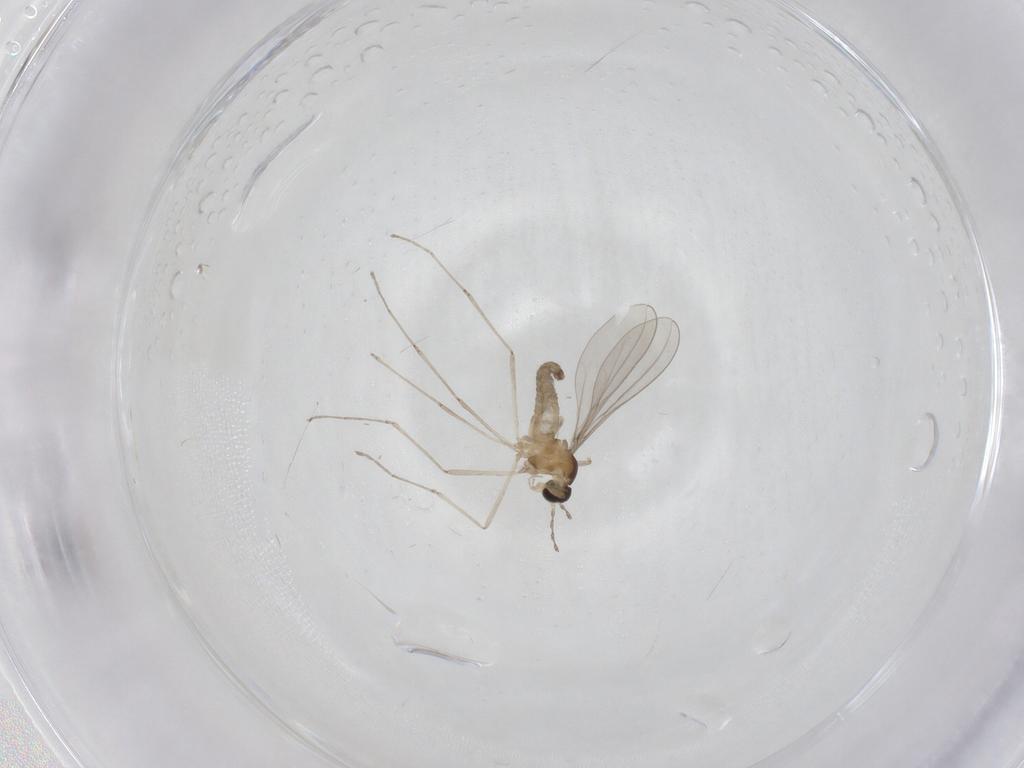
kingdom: Animalia
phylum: Arthropoda
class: Insecta
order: Diptera
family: Cecidomyiidae
